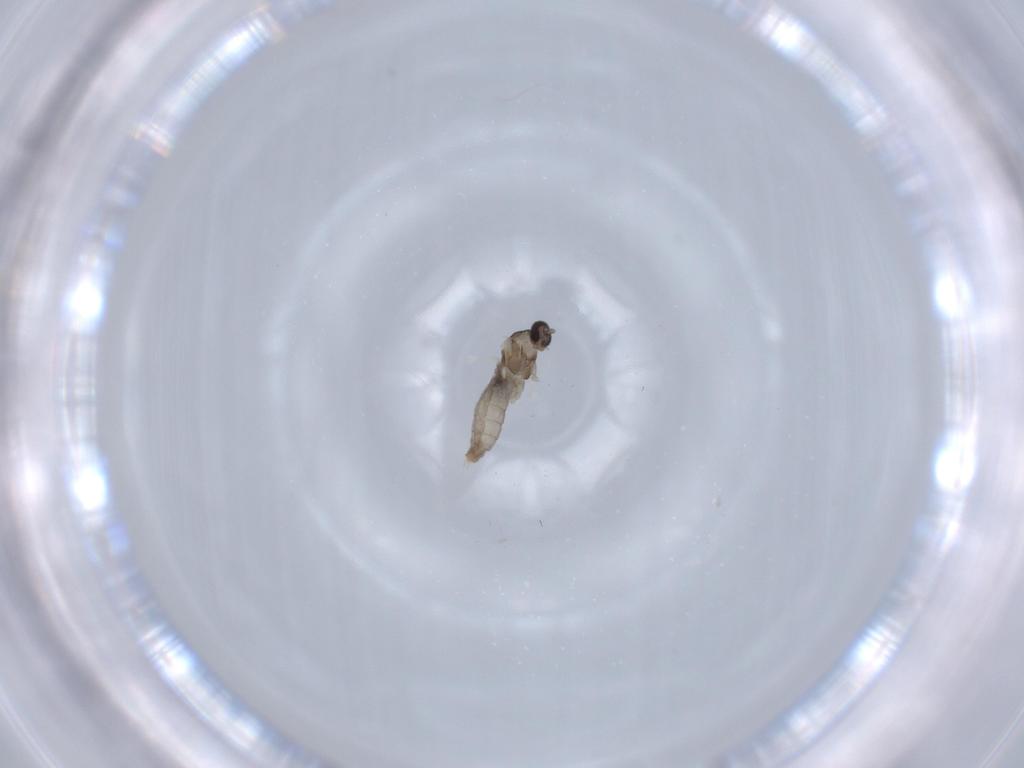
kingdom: Animalia
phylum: Arthropoda
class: Insecta
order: Diptera
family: Cecidomyiidae
